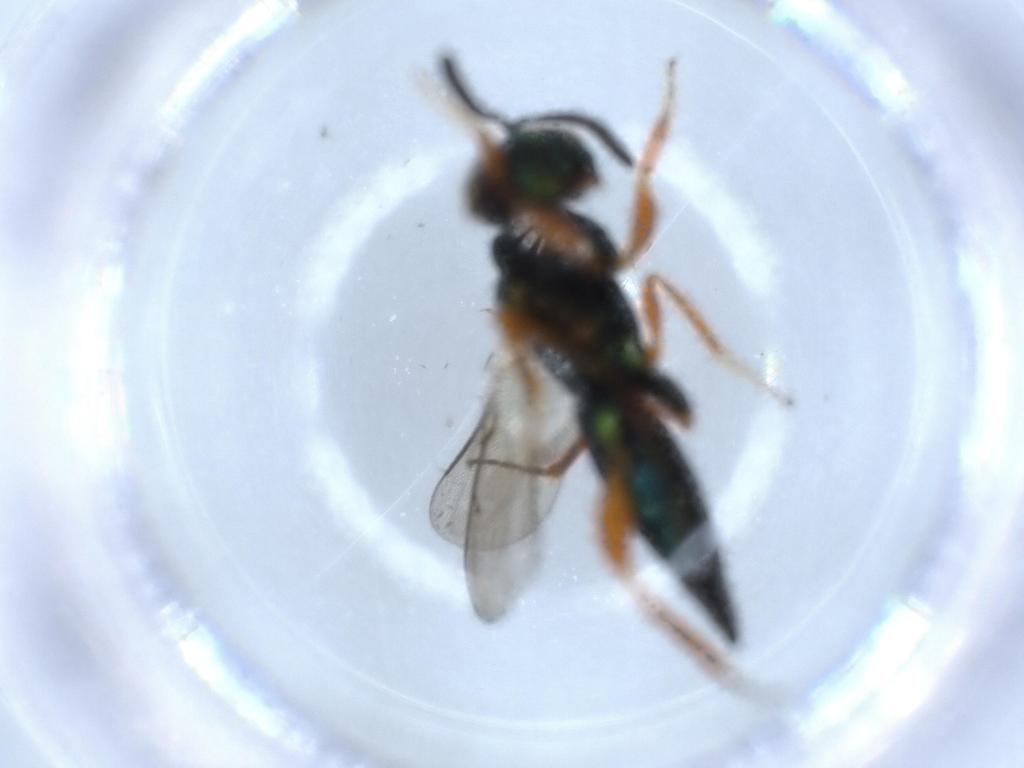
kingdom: Animalia
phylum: Arthropoda
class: Insecta
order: Hymenoptera
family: Lyciscidae
